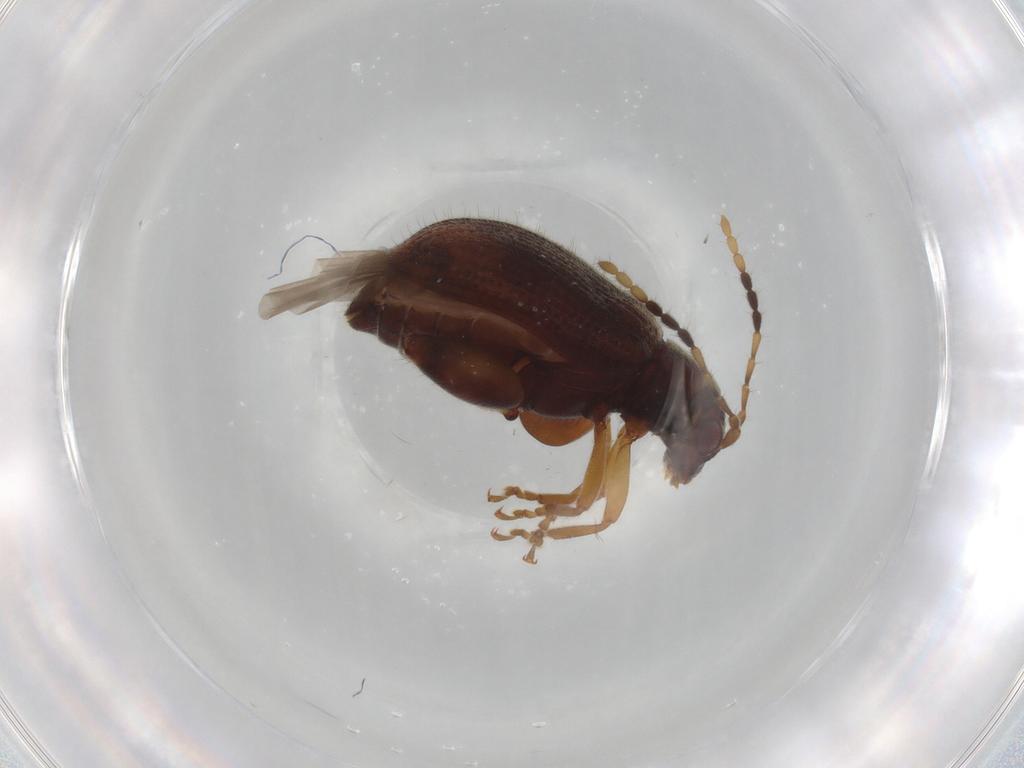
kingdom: Animalia
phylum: Arthropoda
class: Insecta
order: Coleoptera
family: Chrysomelidae
